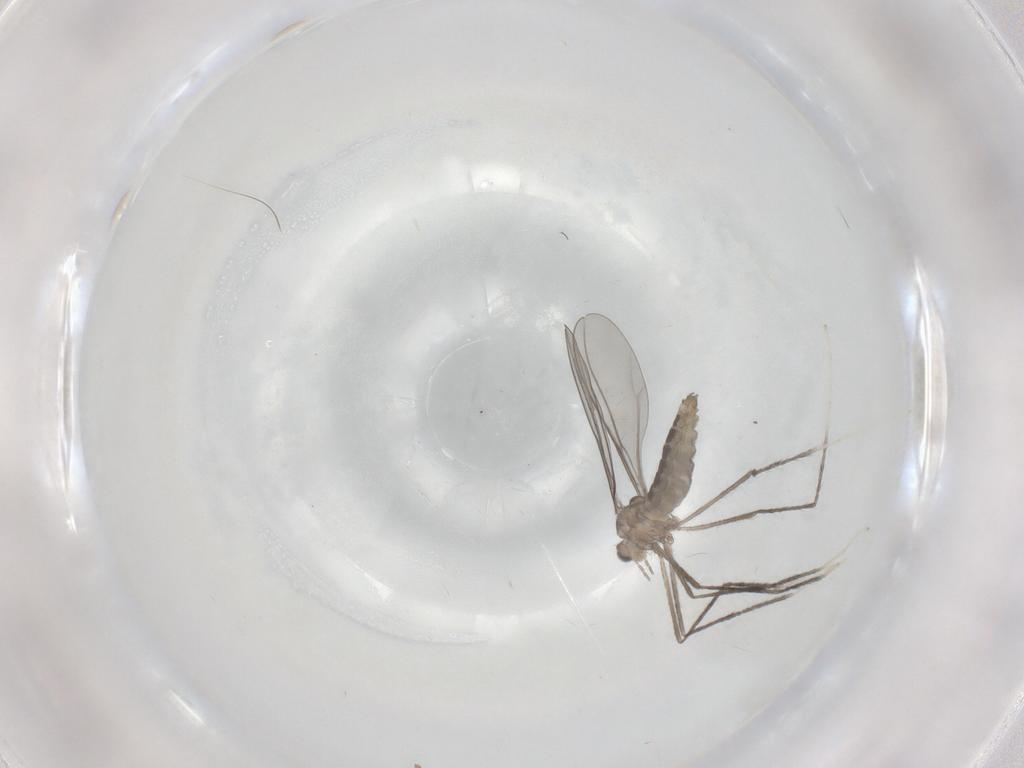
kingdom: Animalia
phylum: Arthropoda
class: Insecta
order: Diptera
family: Cecidomyiidae
